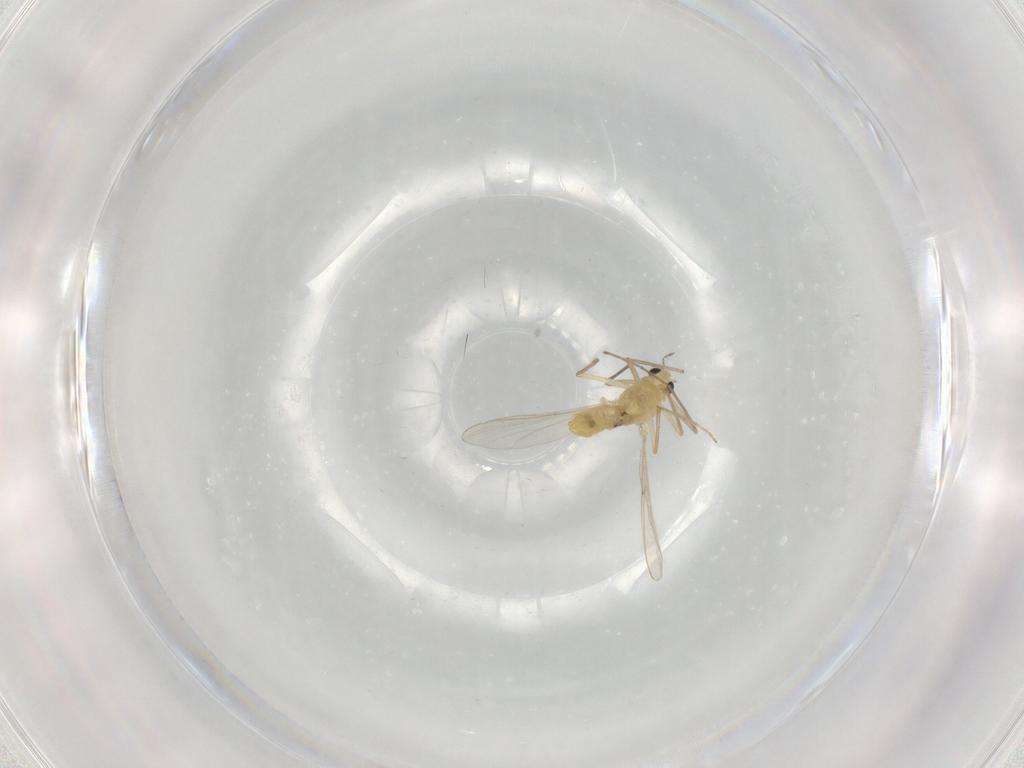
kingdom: Animalia
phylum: Arthropoda
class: Insecta
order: Diptera
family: Chironomidae
